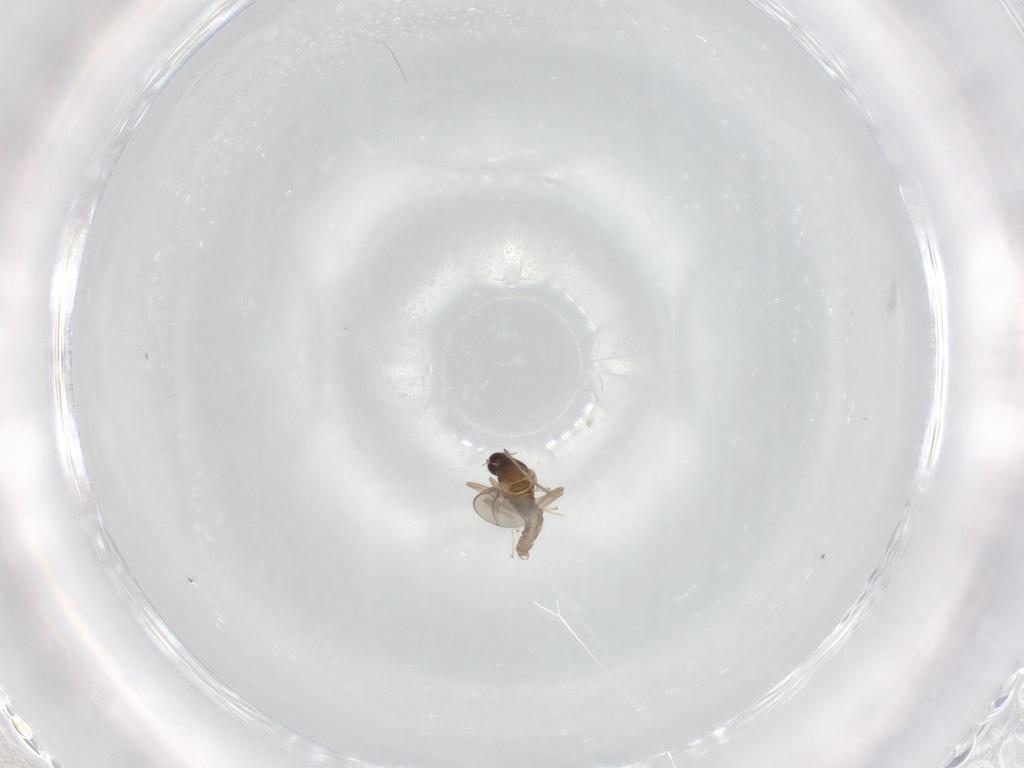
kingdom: Animalia
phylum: Arthropoda
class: Insecta
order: Diptera
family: Cecidomyiidae
